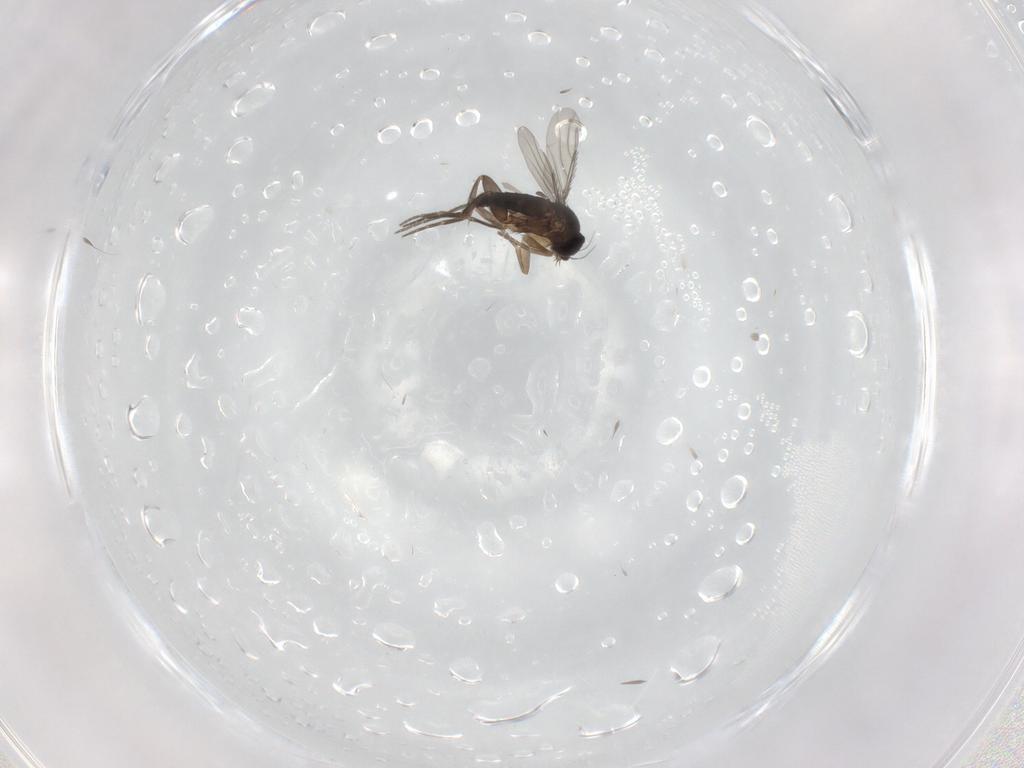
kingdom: Animalia
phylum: Arthropoda
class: Insecta
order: Diptera
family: Phoridae
